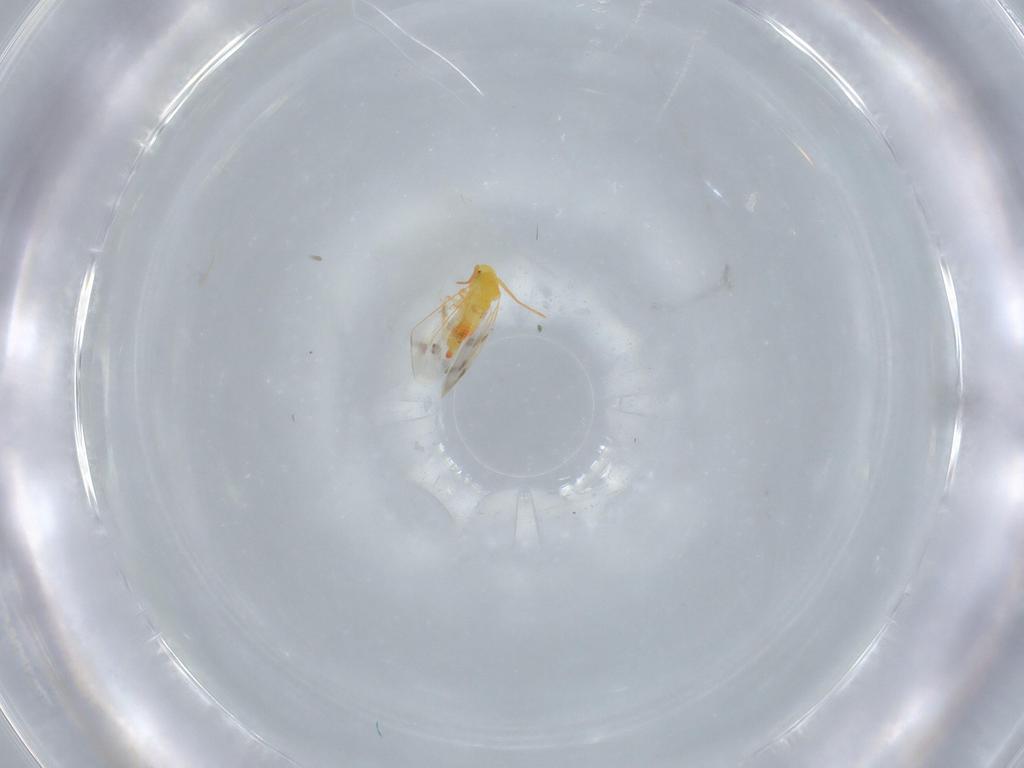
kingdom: Animalia
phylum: Arthropoda
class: Insecta
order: Hemiptera
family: Aleyrodidae
